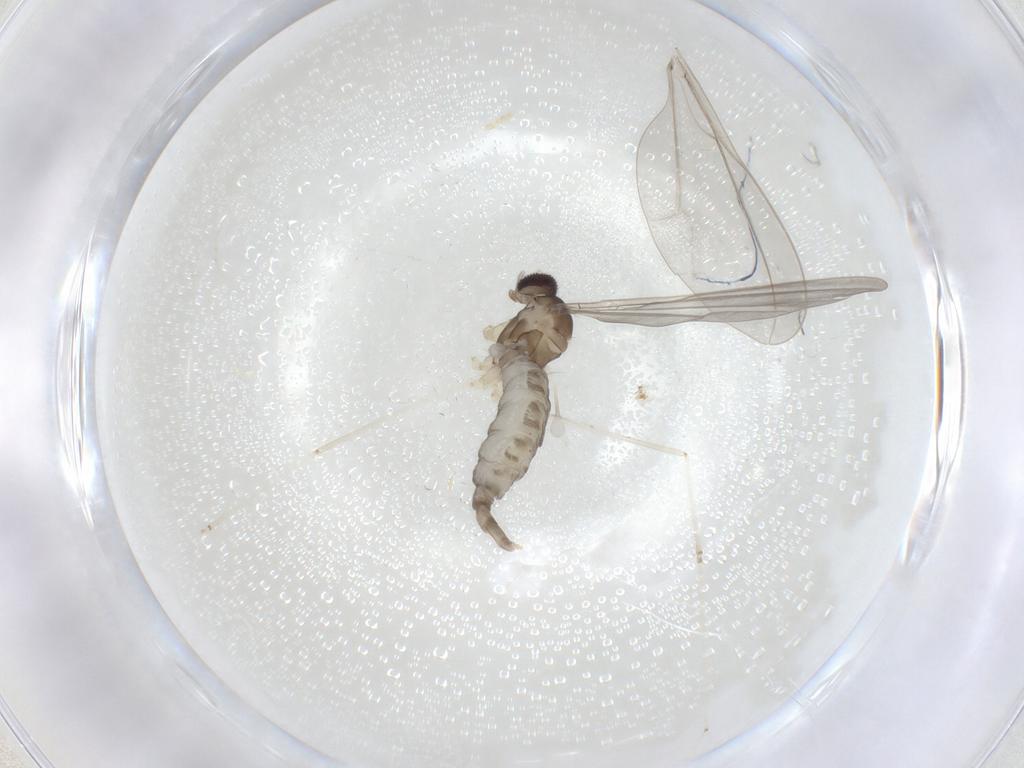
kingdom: Animalia
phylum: Arthropoda
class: Insecta
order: Diptera
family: Cecidomyiidae
